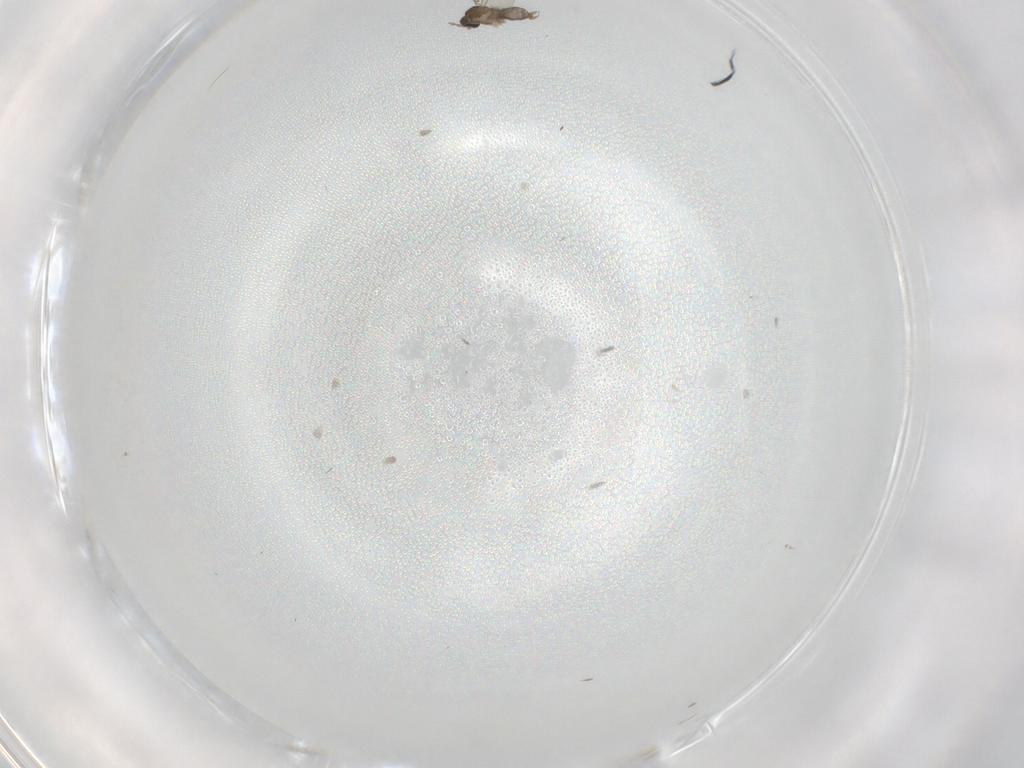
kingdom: Animalia
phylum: Arthropoda
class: Insecta
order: Diptera
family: Cecidomyiidae
